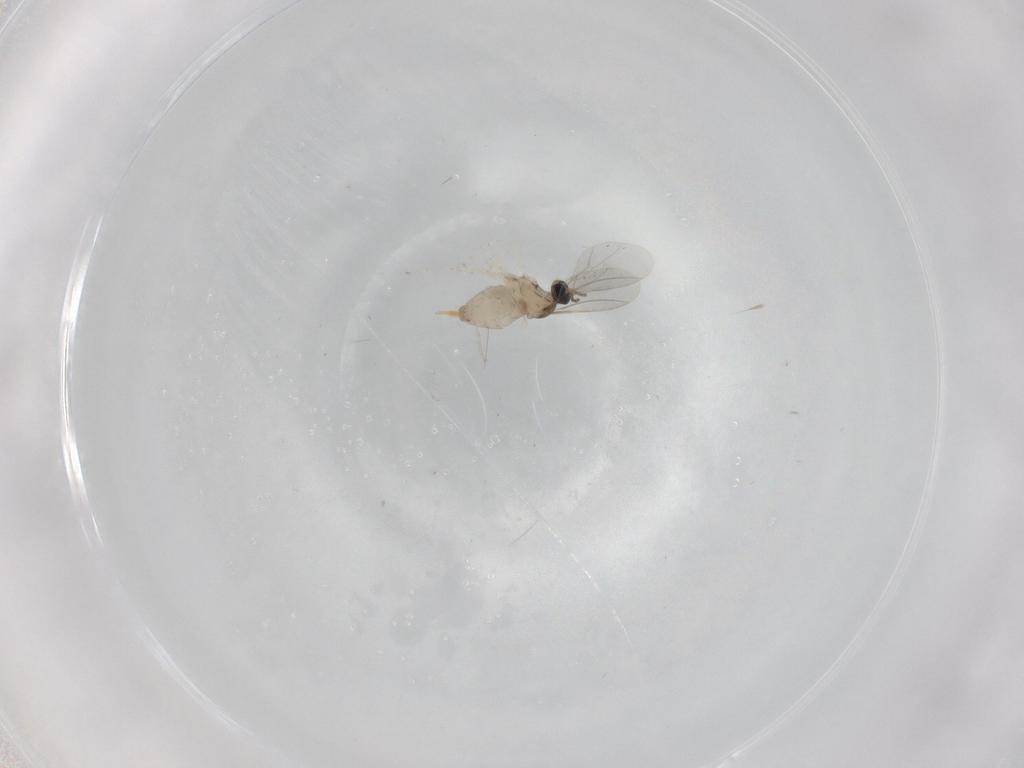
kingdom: Animalia
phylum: Arthropoda
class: Insecta
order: Diptera
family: Cecidomyiidae
